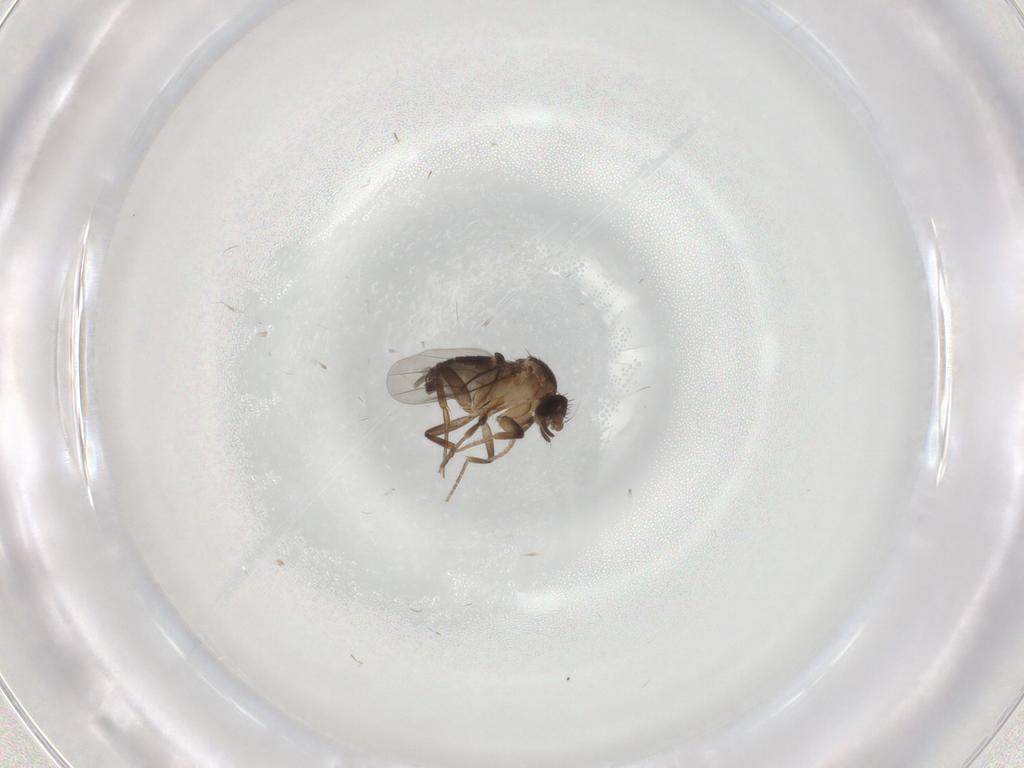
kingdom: Animalia
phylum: Arthropoda
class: Insecta
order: Diptera
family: Phoridae
